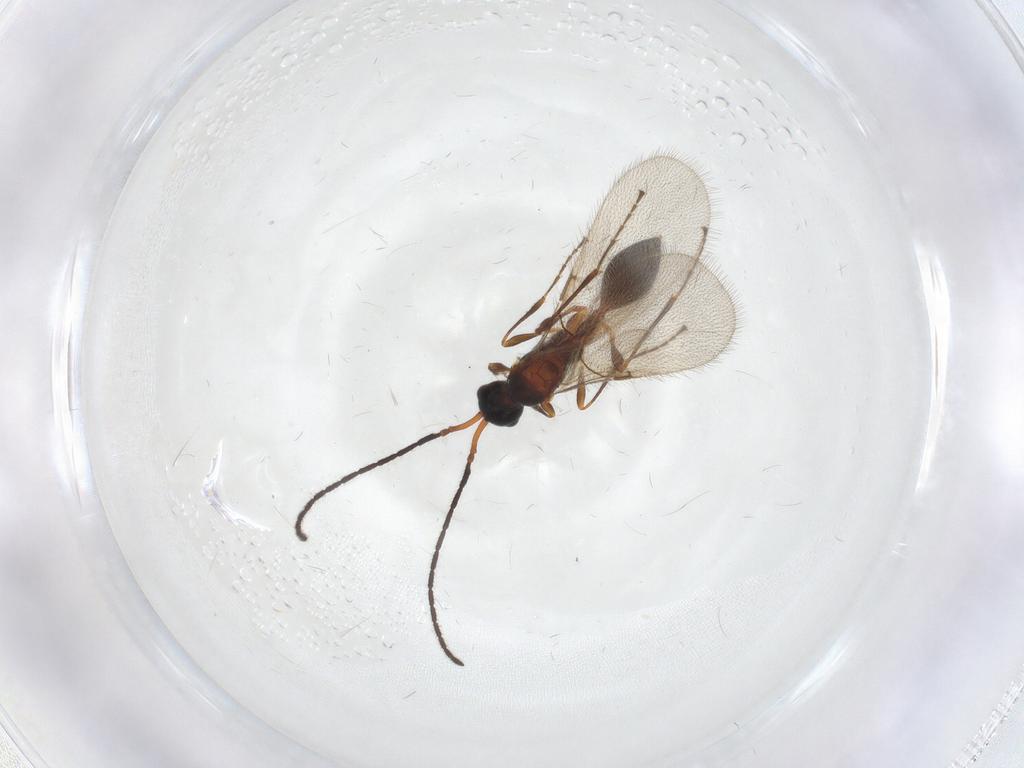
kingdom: Animalia
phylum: Arthropoda
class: Insecta
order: Hymenoptera
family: Diapriidae
